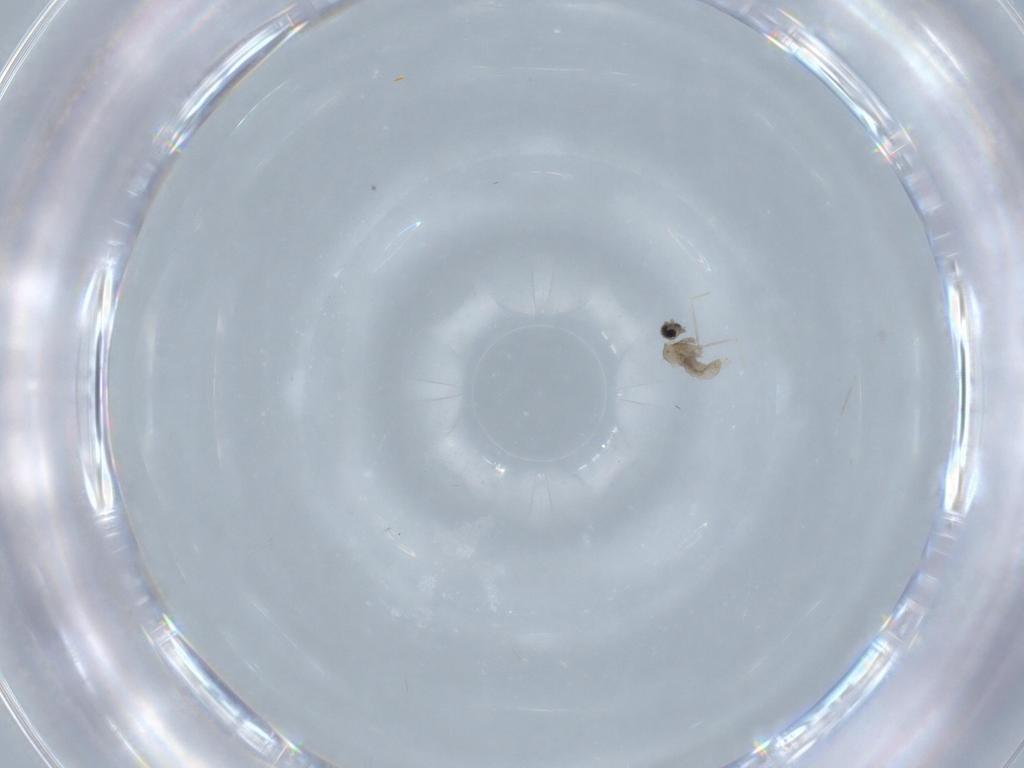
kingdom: Animalia
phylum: Arthropoda
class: Insecta
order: Diptera
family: Cecidomyiidae
